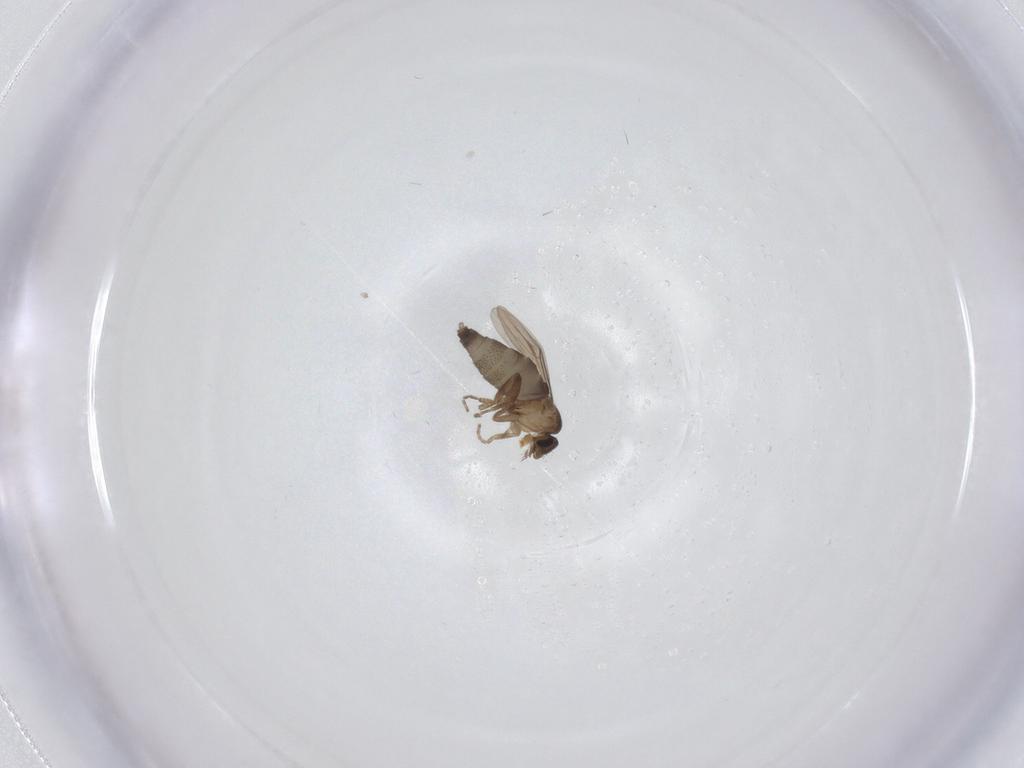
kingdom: Animalia
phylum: Arthropoda
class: Insecta
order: Diptera
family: Phoridae
